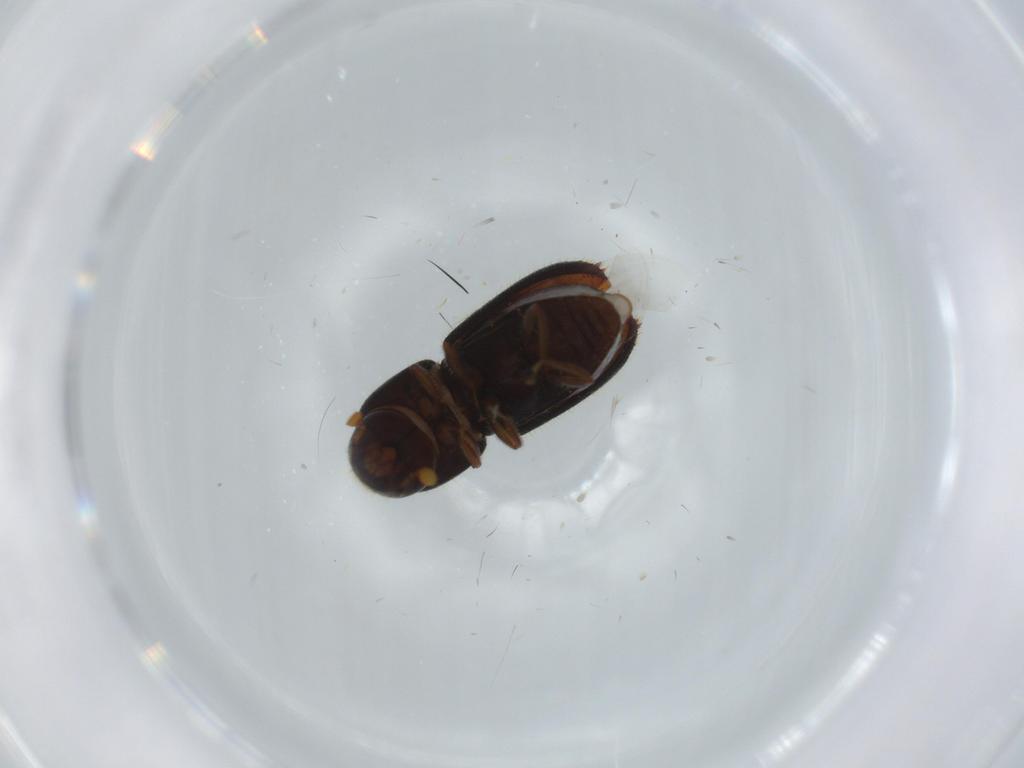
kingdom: Animalia
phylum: Arthropoda
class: Insecta
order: Coleoptera
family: Curculionidae
